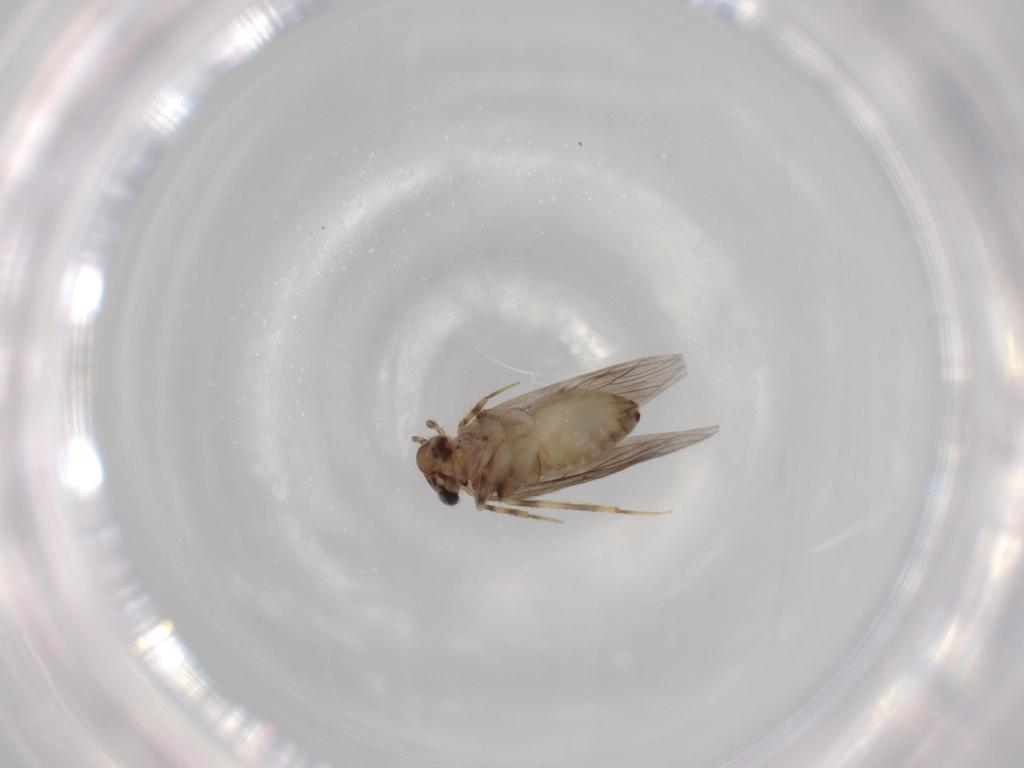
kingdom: Animalia
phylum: Arthropoda
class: Insecta
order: Psocodea
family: Lepidopsocidae
